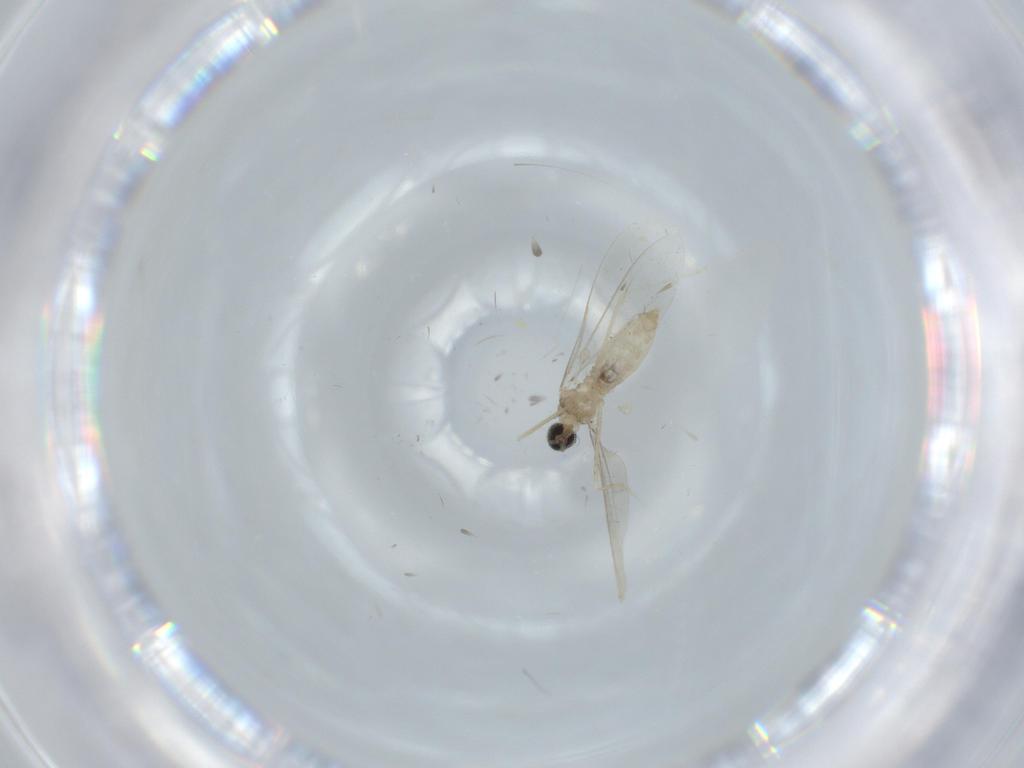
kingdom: Animalia
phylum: Arthropoda
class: Insecta
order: Diptera
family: Cecidomyiidae
